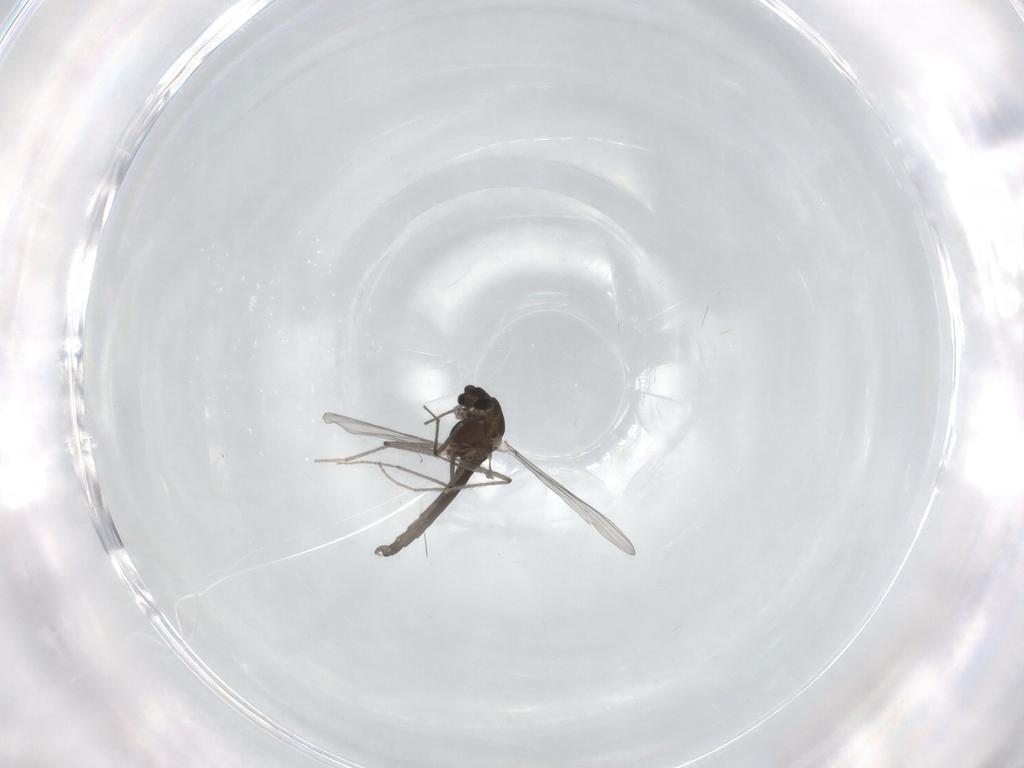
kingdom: Animalia
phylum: Arthropoda
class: Insecta
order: Diptera
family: Chironomidae
